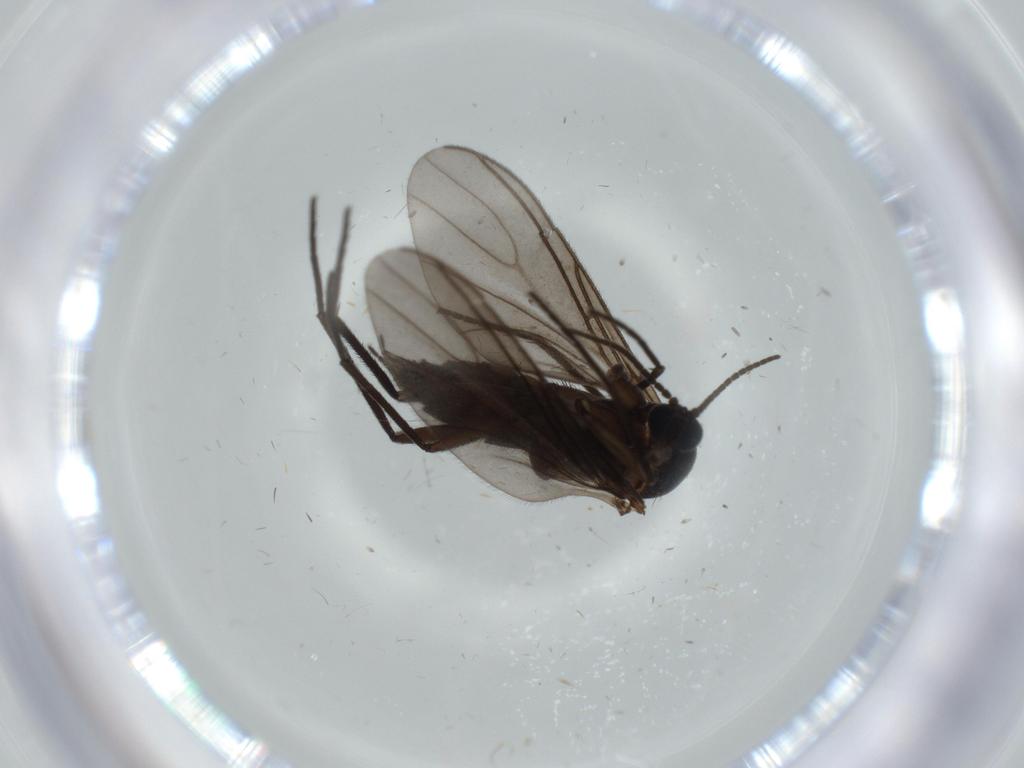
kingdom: Animalia
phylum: Arthropoda
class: Insecta
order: Diptera
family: Sciaridae
